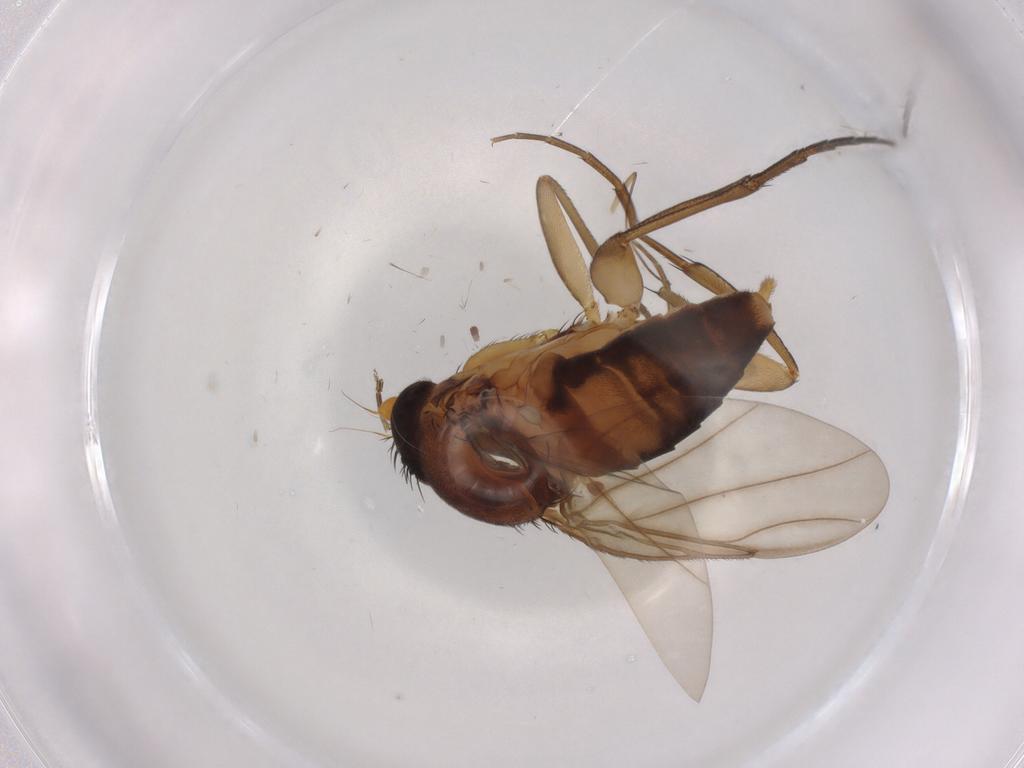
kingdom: Animalia
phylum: Arthropoda
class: Insecta
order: Diptera
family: Phoridae
